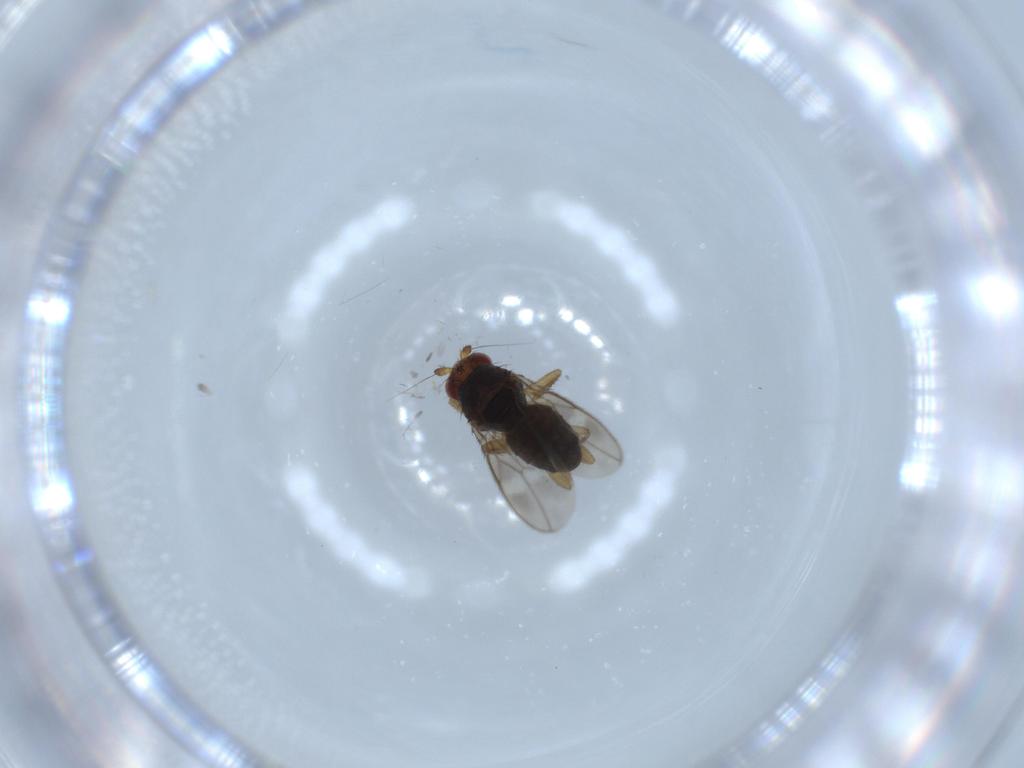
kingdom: Animalia
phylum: Arthropoda
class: Insecta
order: Diptera
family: Sphaeroceridae
